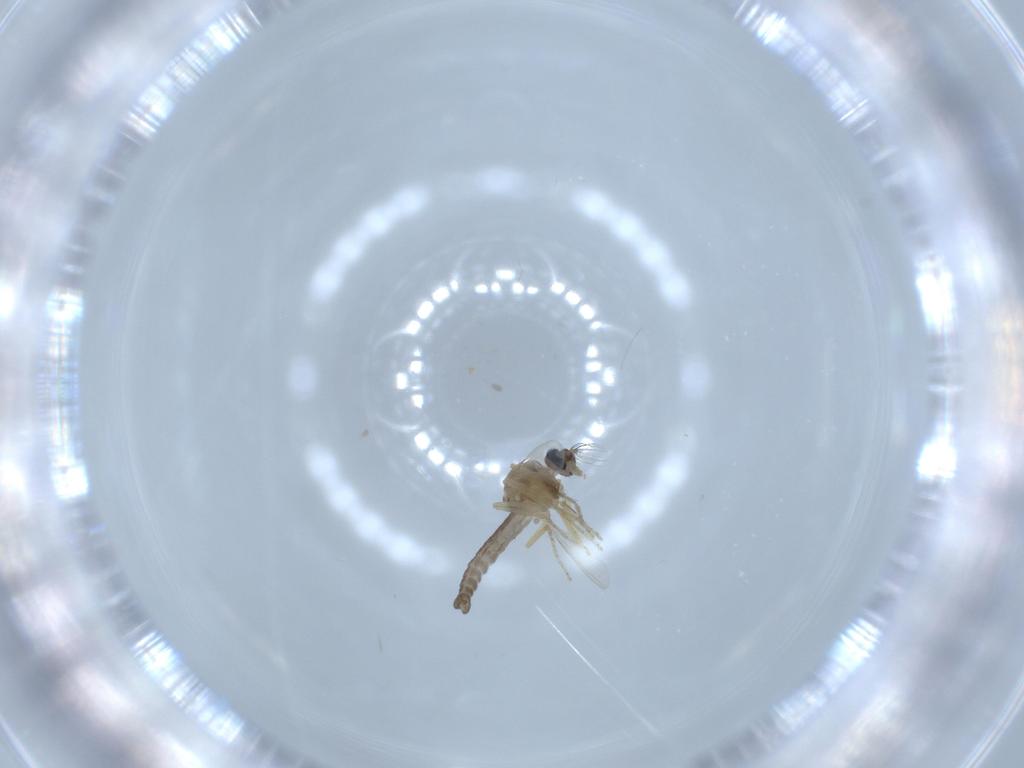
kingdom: Animalia
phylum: Arthropoda
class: Insecta
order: Diptera
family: Ceratopogonidae
